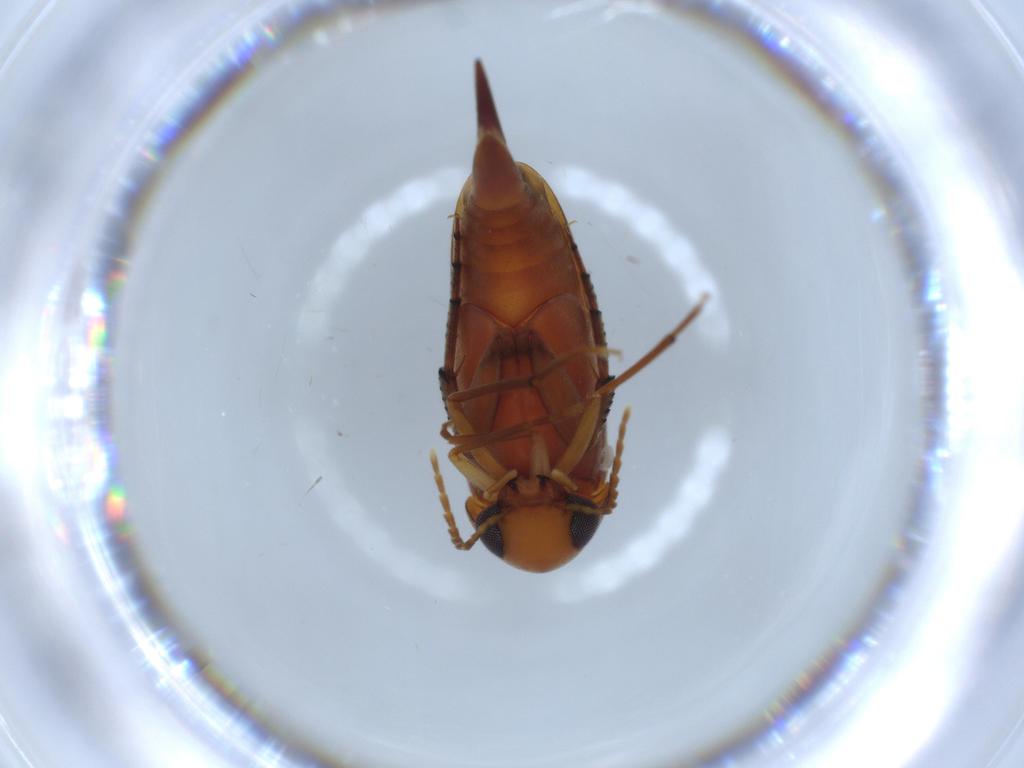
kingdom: Animalia
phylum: Arthropoda
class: Insecta
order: Coleoptera
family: Mordellidae
